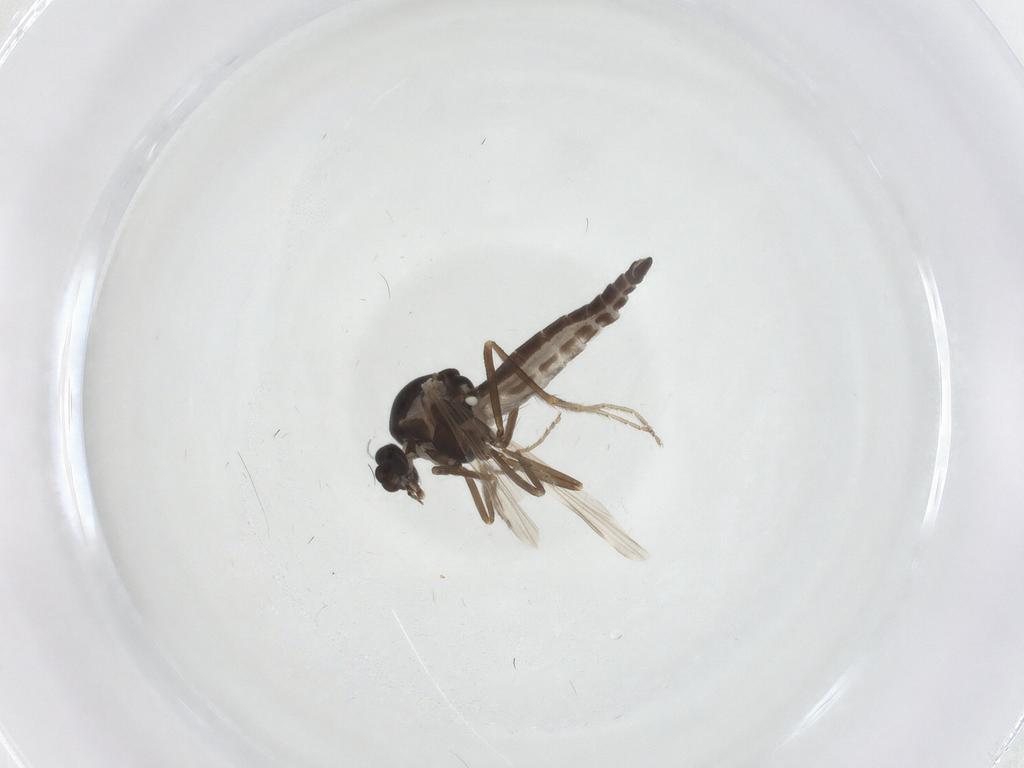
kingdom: Animalia
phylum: Arthropoda
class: Insecta
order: Diptera
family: Ceratopogonidae
